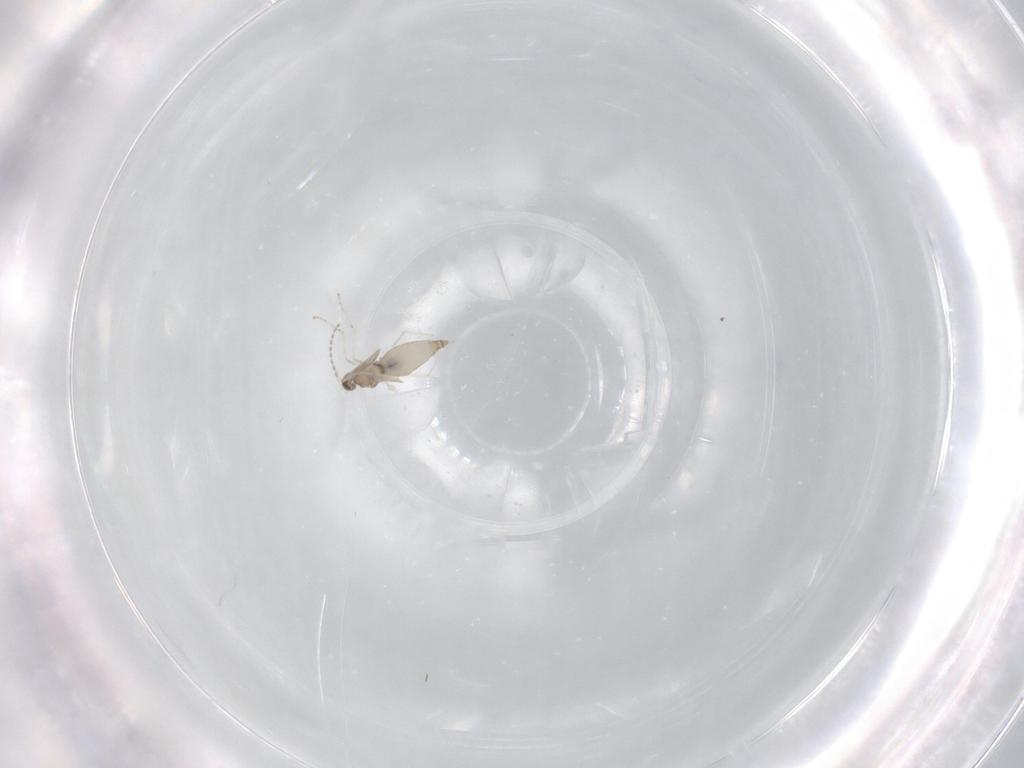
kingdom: Animalia
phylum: Arthropoda
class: Insecta
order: Diptera
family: Cecidomyiidae
